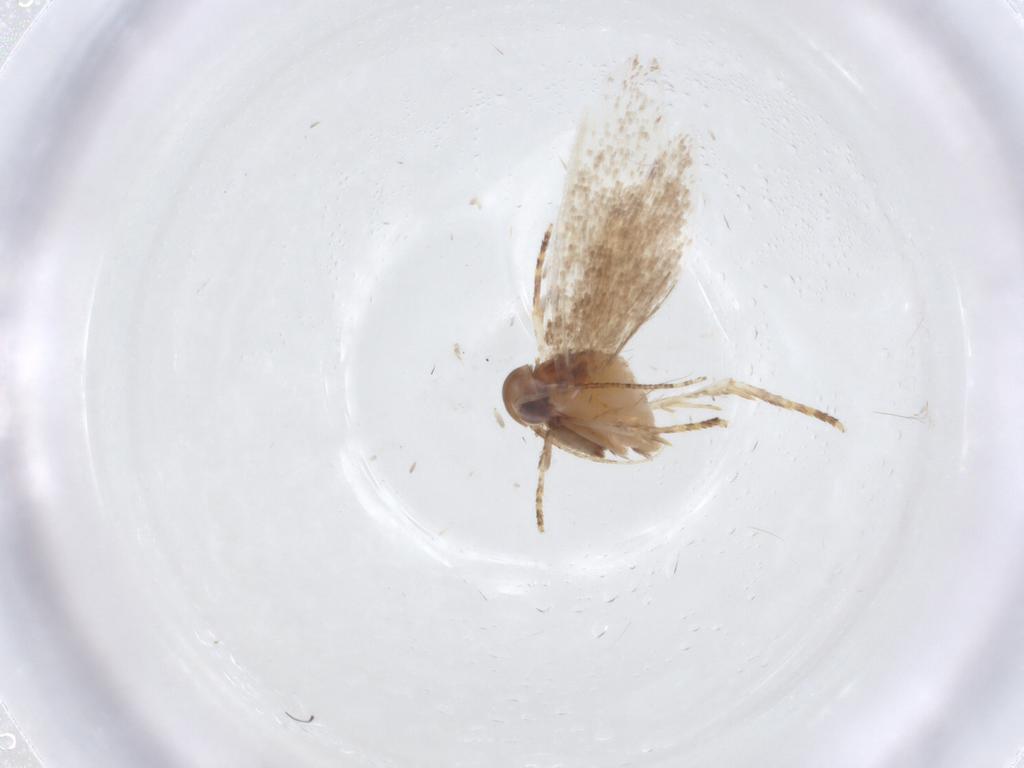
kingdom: Animalia
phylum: Arthropoda
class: Insecta
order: Lepidoptera
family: Oecophoridae
